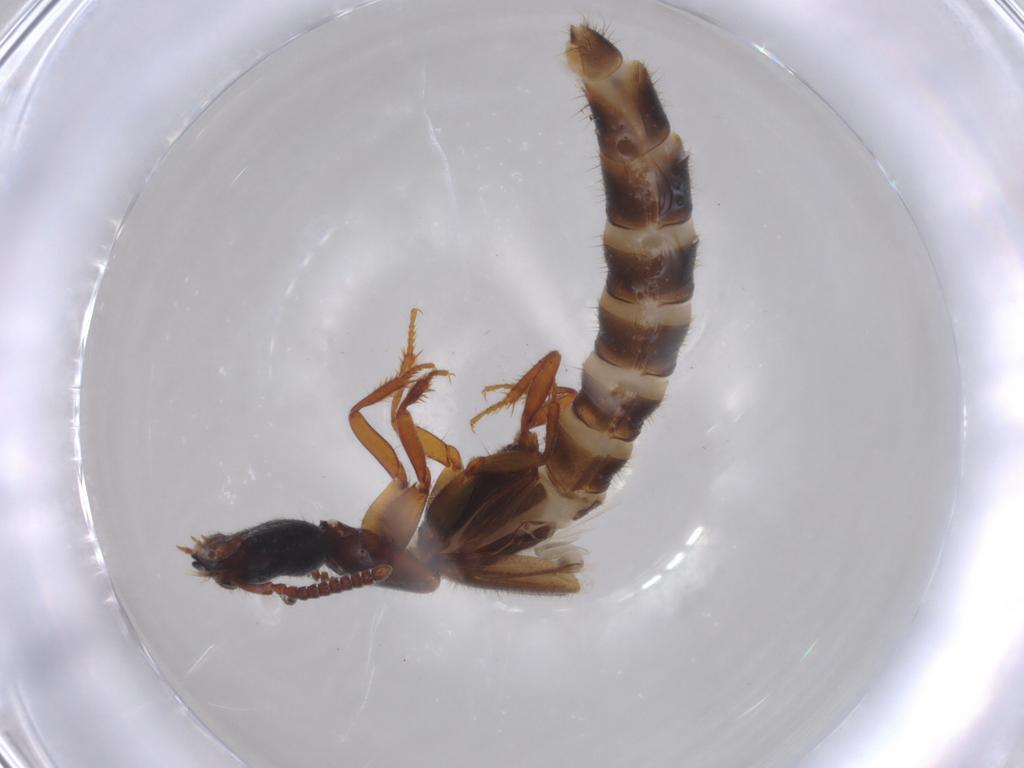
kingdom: Animalia
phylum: Arthropoda
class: Insecta
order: Coleoptera
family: Staphylinidae
